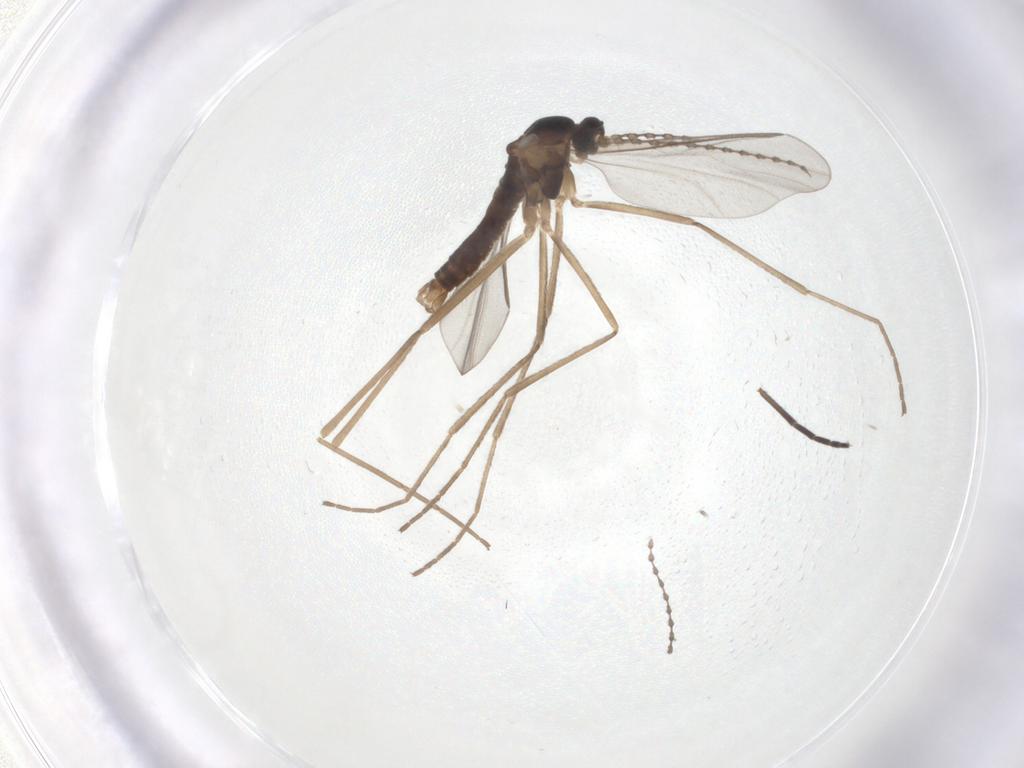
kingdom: Animalia
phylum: Arthropoda
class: Insecta
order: Diptera
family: Cecidomyiidae
